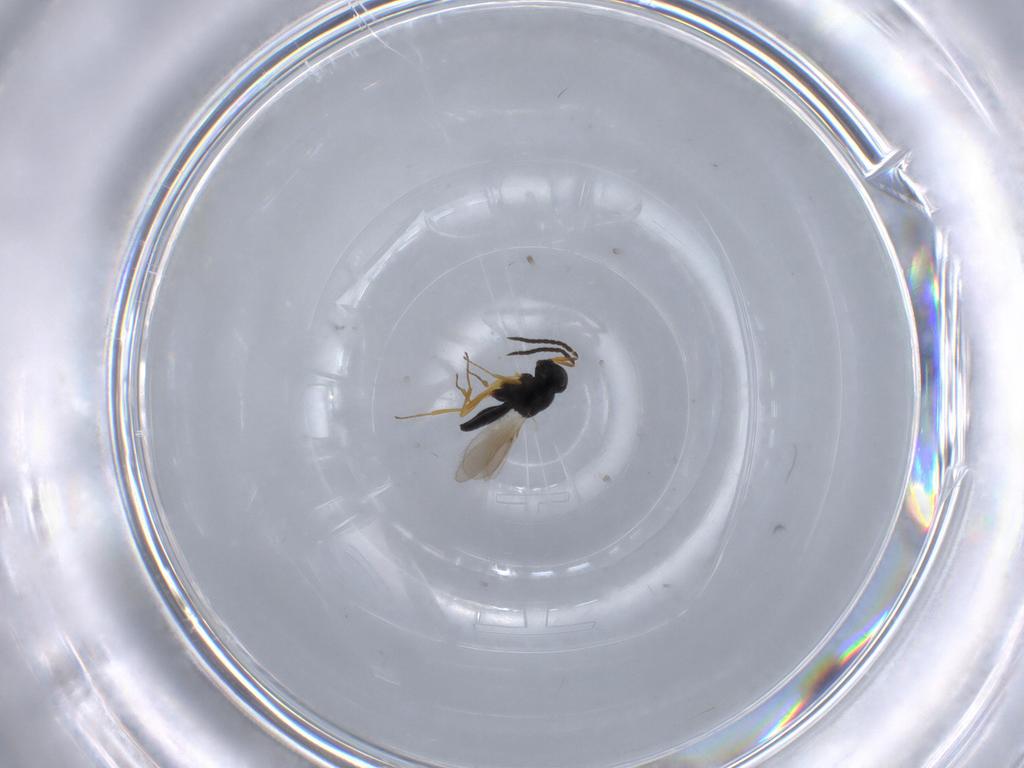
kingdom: Animalia
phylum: Arthropoda
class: Insecta
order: Hymenoptera
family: Scelionidae
